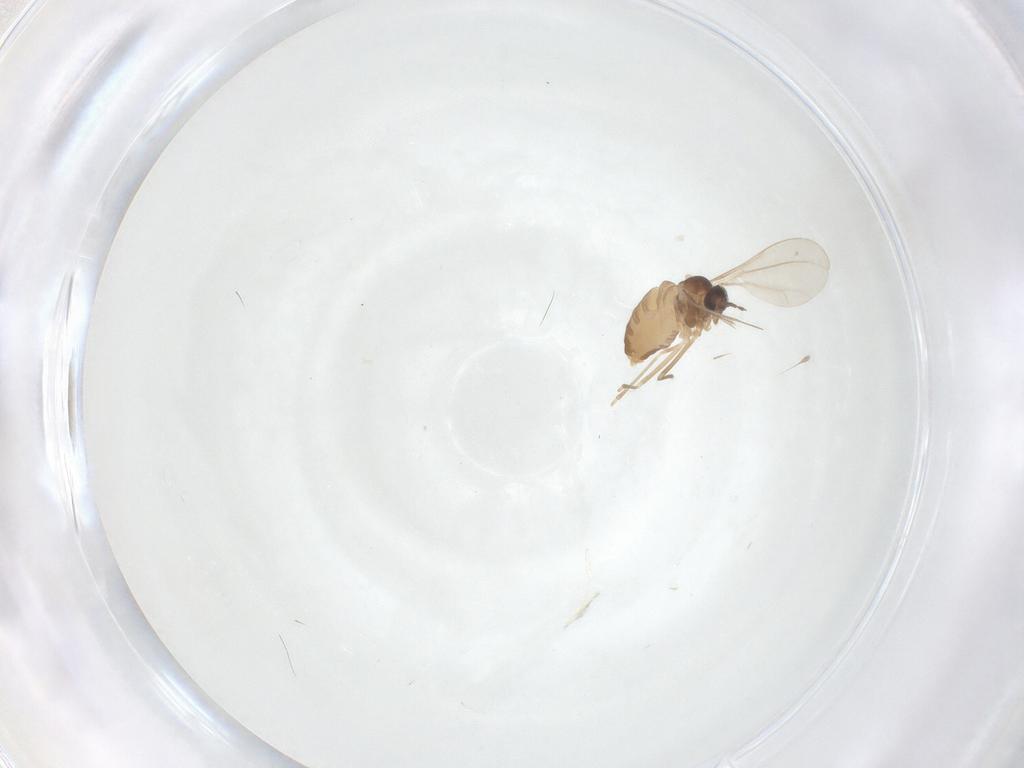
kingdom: Animalia
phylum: Arthropoda
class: Insecta
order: Diptera
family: Cecidomyiidae
